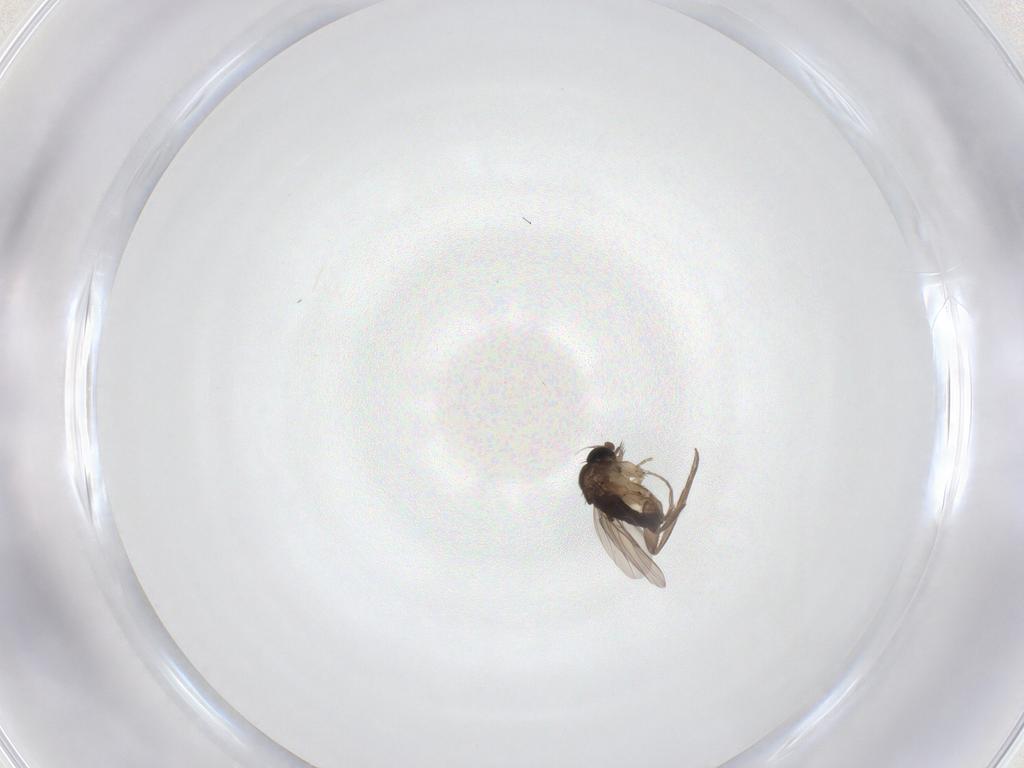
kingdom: Animalia
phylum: Arthropoda
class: Insecta
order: Diptera
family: Phoridae
